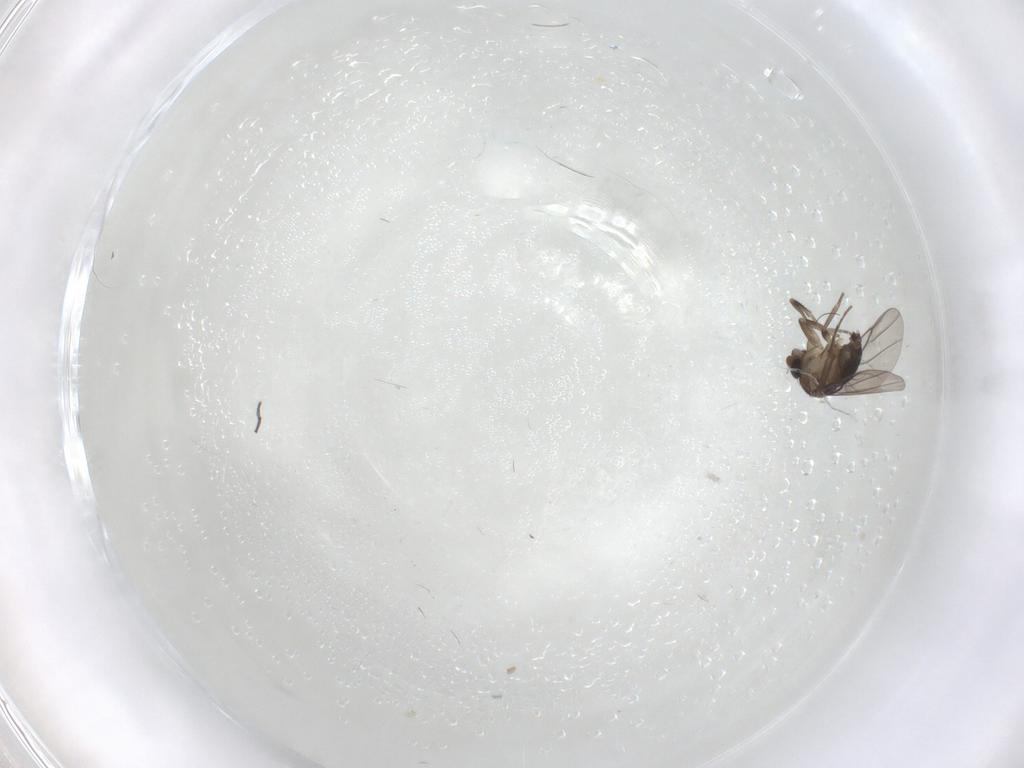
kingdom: Animalia
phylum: Arthropoda
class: Insecta
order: Diptera
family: Phoridae
